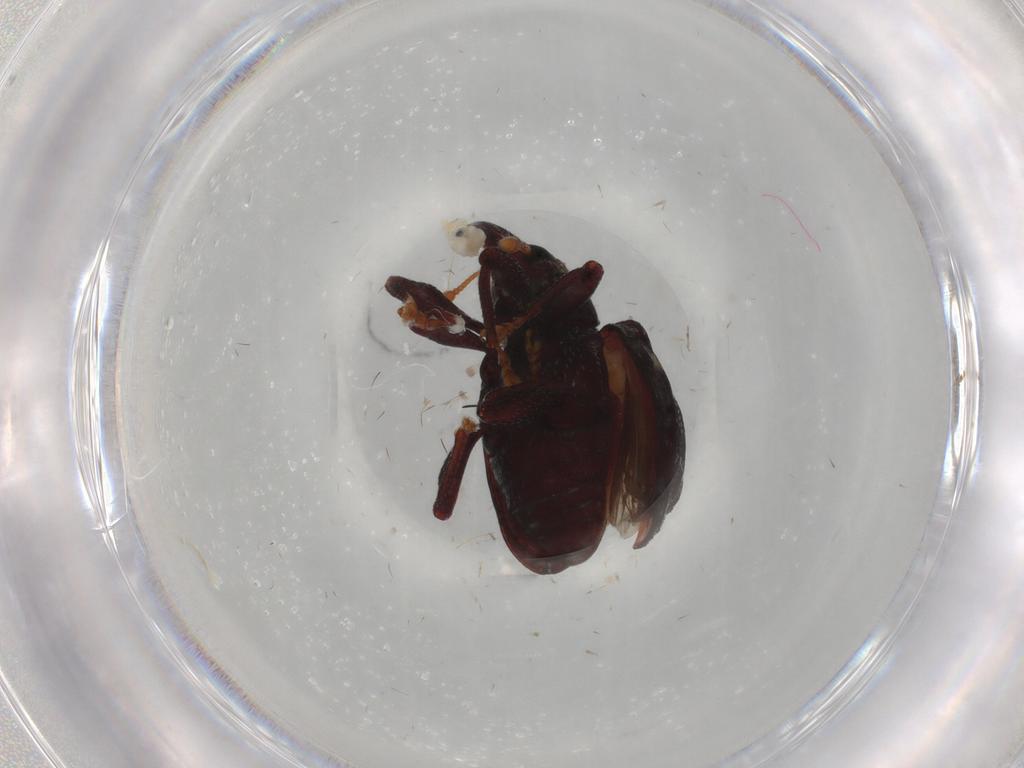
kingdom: Animalia
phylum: Arthropoda
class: Insecta
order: Coleoptera
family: Curculionidae
